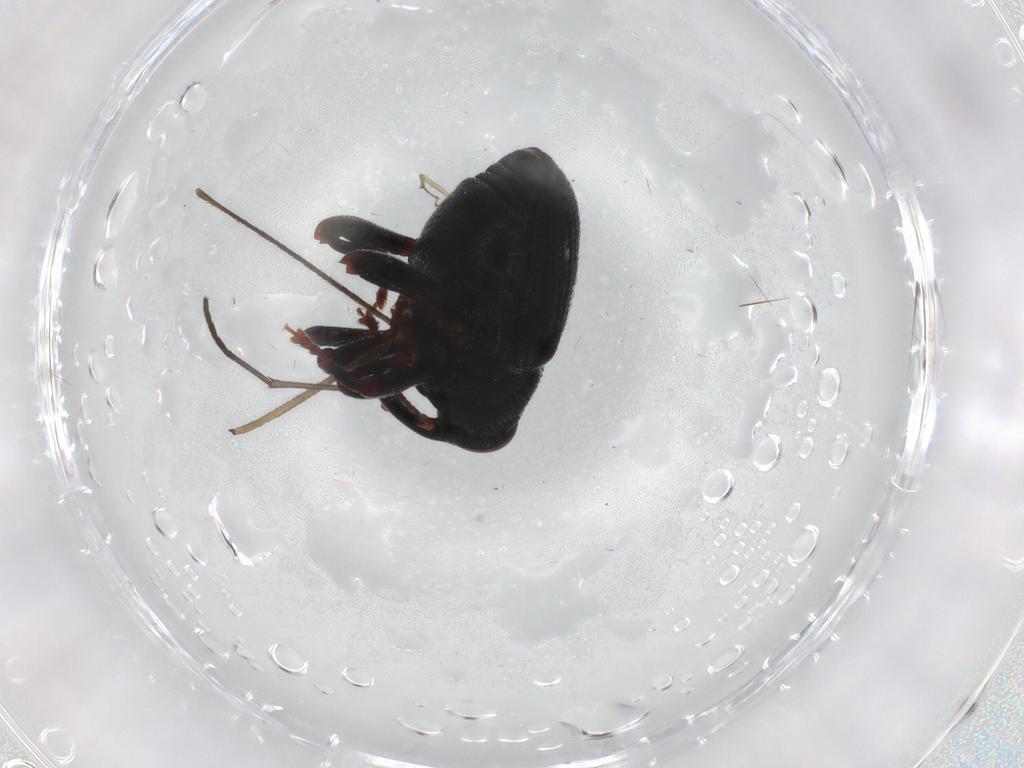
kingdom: Animalia
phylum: Arthropoda
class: Insecta
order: Coleoptera
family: Curculionidae
